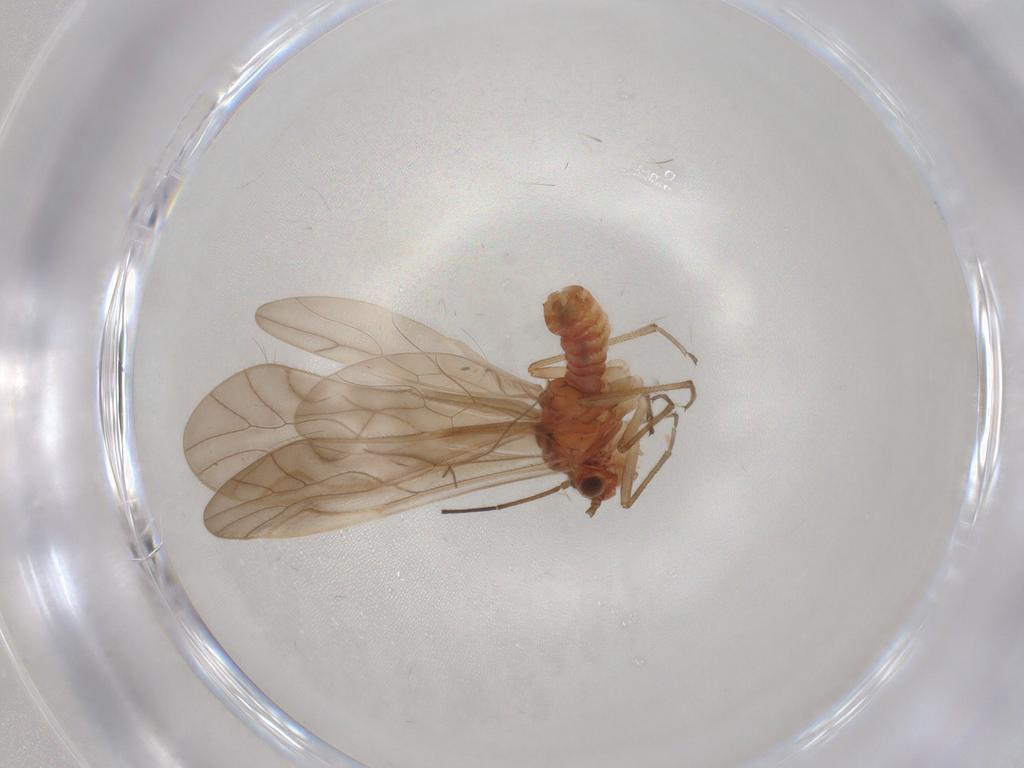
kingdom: Animalia
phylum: Arthropoda
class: Insecta
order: Psocodea
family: Caeciliusidae
